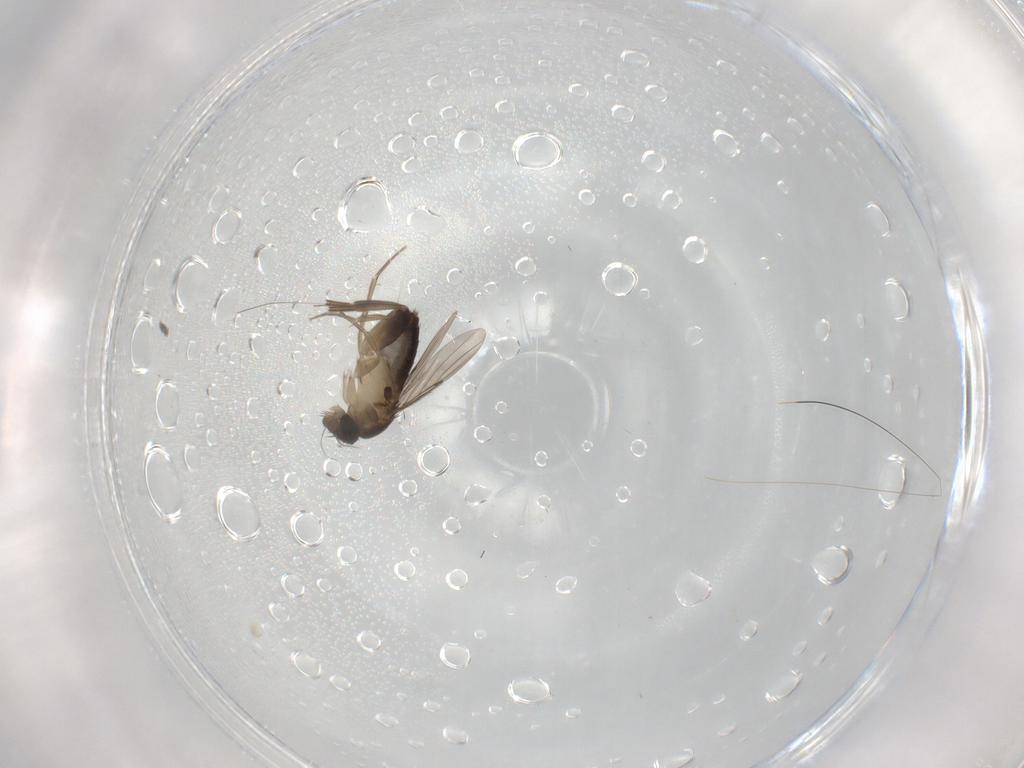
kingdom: Animalia
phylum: Arthropoda
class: Insecta
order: Diptera
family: Phoridae
